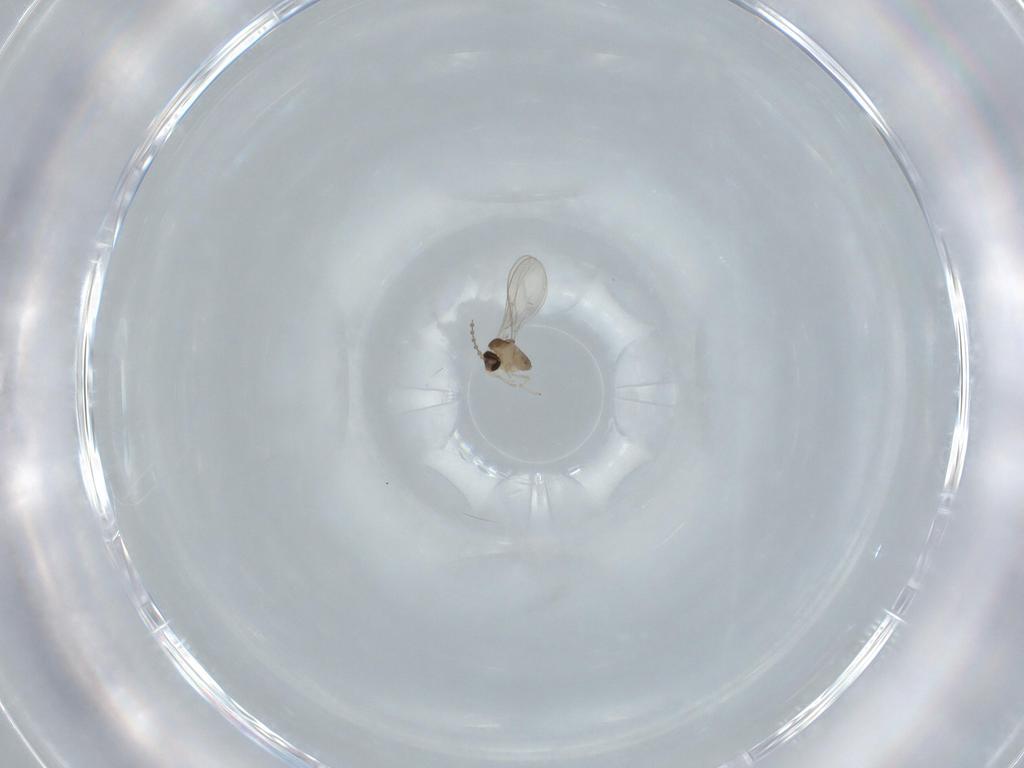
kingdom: Animalia
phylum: Arthropoda
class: Insecta
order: Diptera
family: Cecidomyiidae
